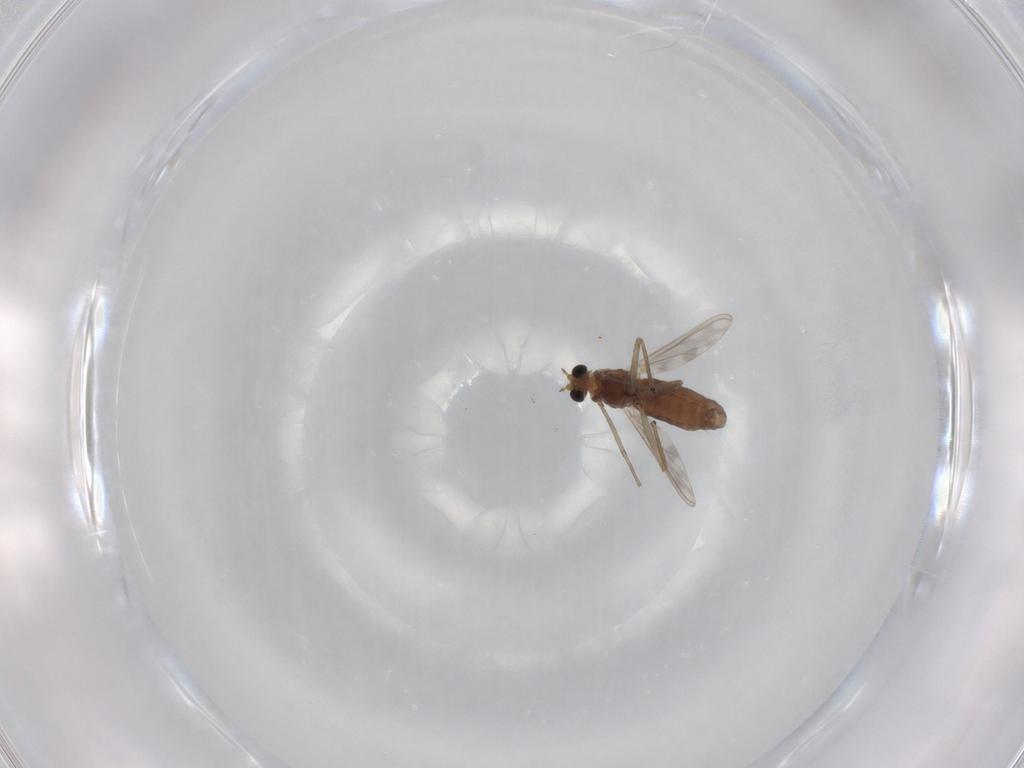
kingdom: Animalia
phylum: Arthropoda
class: Insecta
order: Diptera
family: Chironomidae
